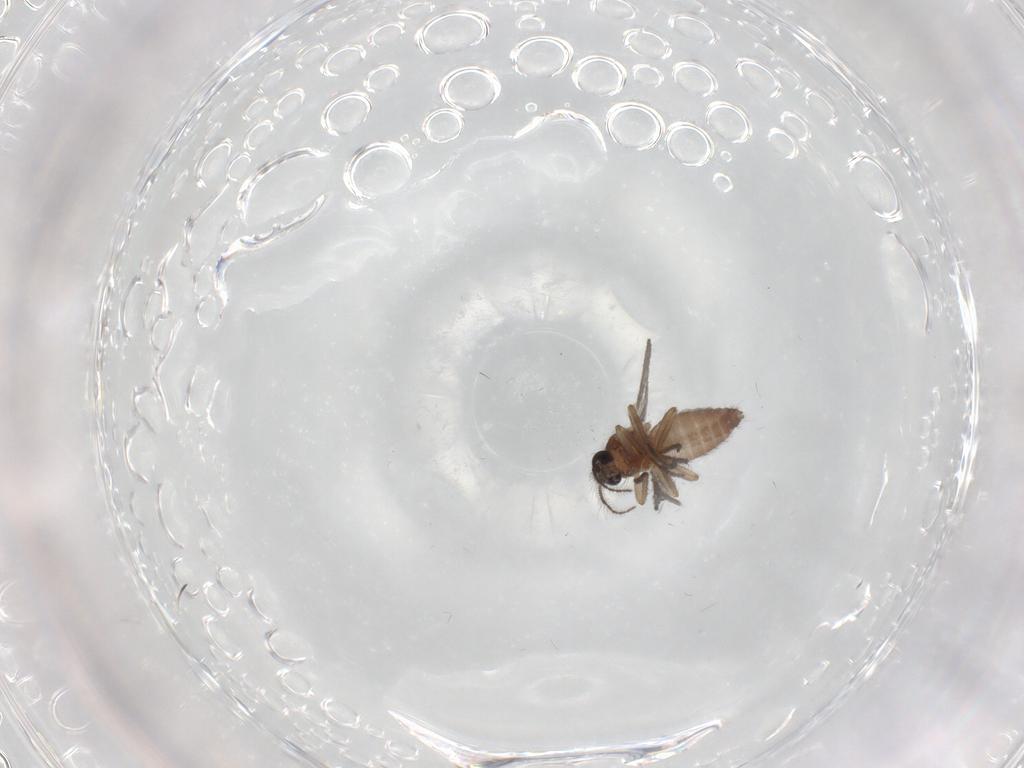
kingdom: Animalia
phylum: Arthropoda
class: Insecta
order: Diptera
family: Ceratopogonidae
